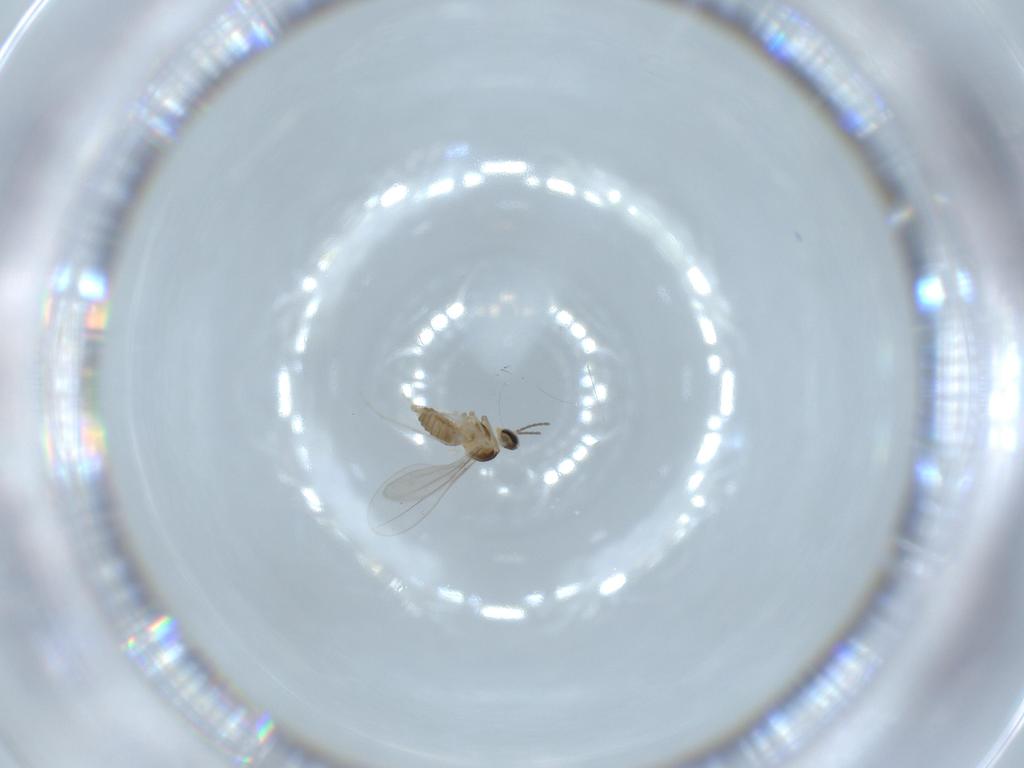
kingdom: Animalia
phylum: Arthropoda
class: Insecta
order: Diptera
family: Cecidomyiidae
